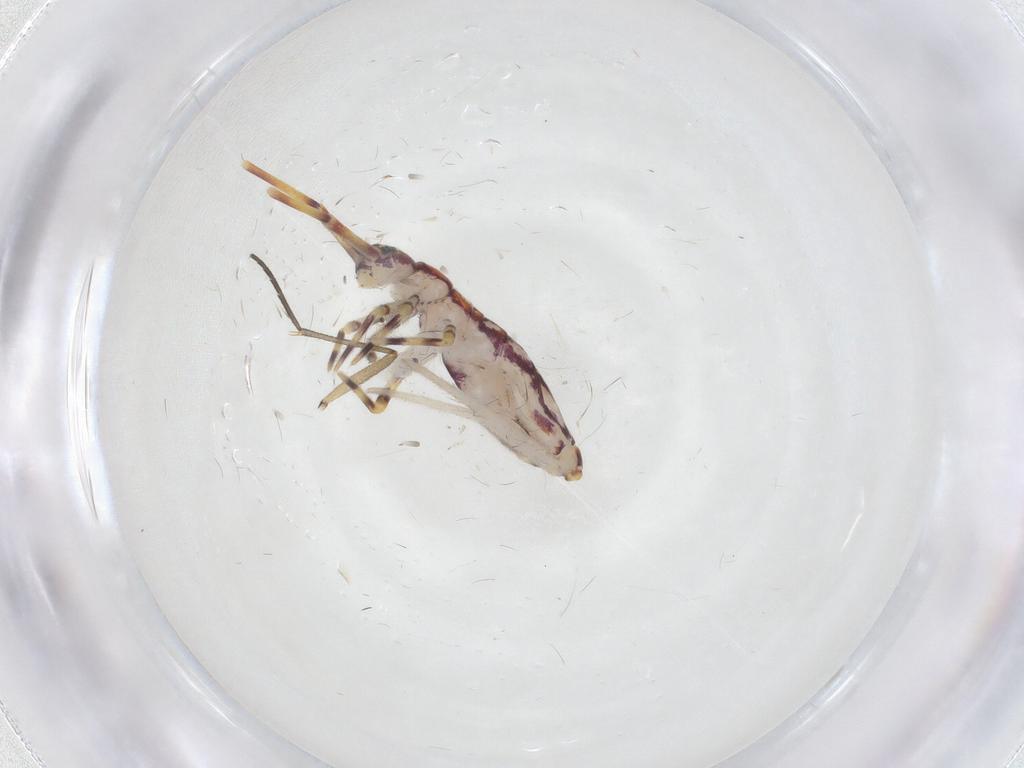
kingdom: Animalia
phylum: Arthropoda
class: Collembola
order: Entomobryomorpha
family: Entomobryidae
